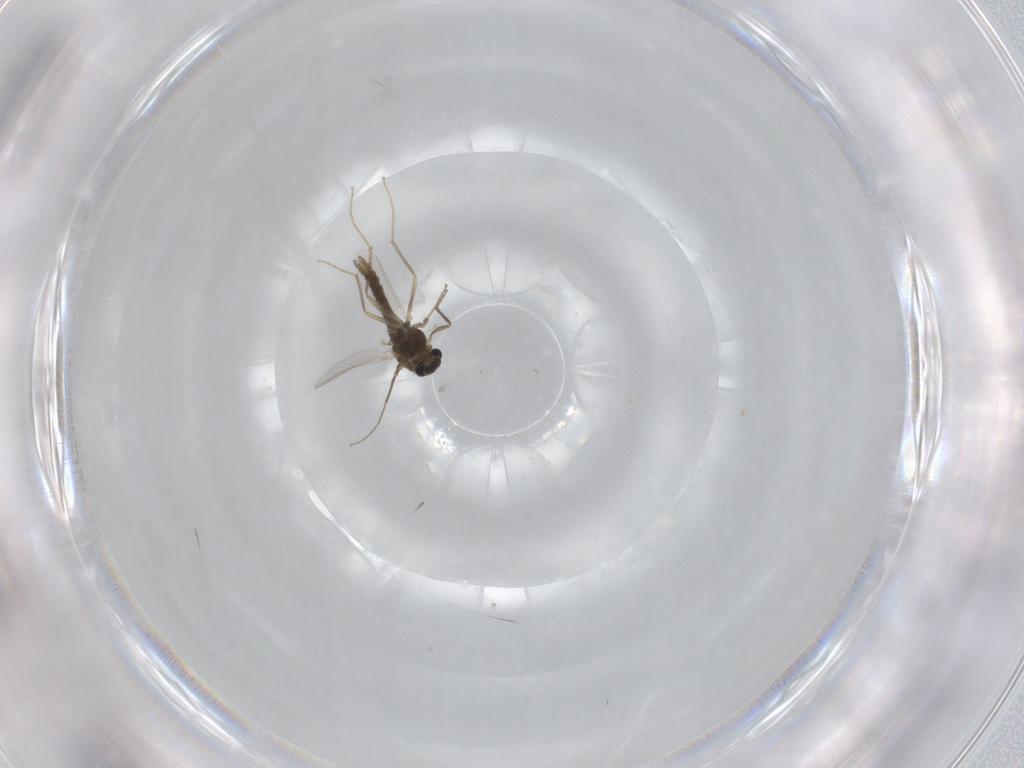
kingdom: Animalia
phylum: Arthropoda
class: Insecta
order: Diptera
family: Chironomidae
